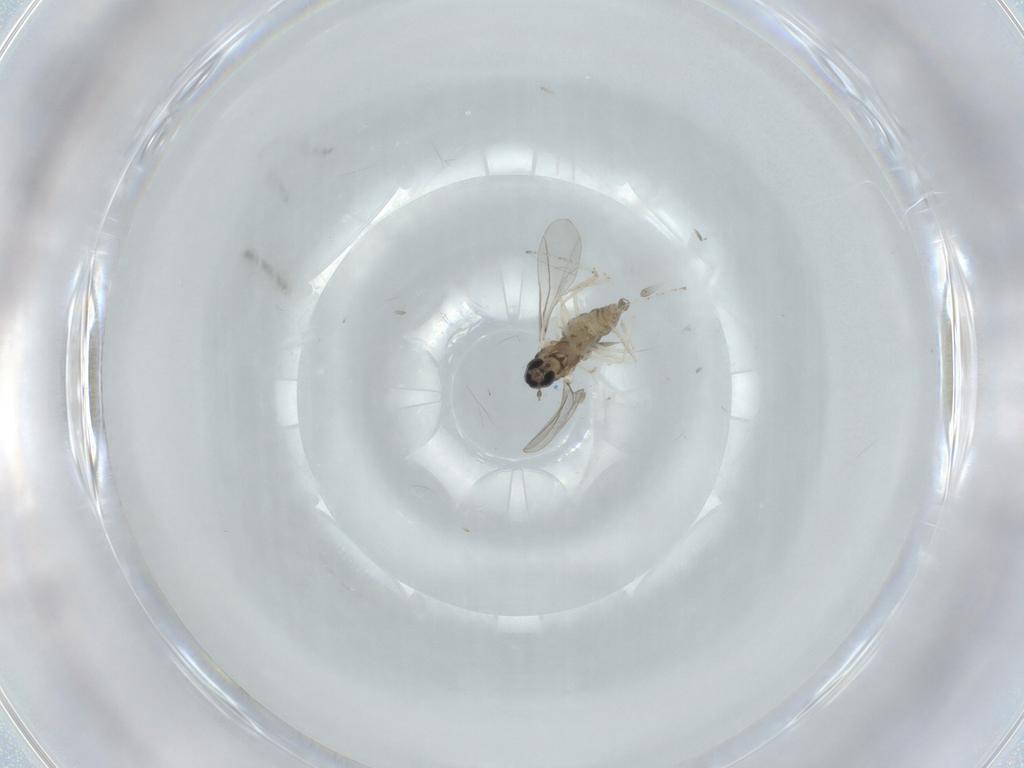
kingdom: Animalia
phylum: Arthropoda
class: Insecta
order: Diptera
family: Cecidomyiidae
